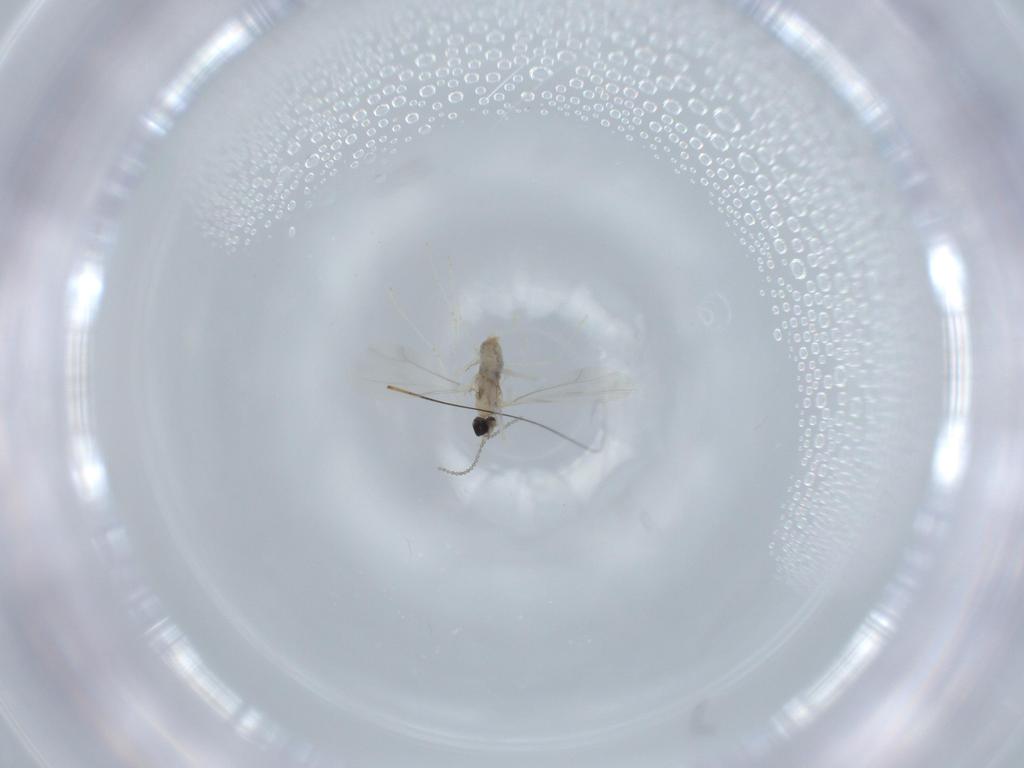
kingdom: Animalia
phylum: Arthropoda
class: Insecta
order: Diptera
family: Cecidomyiidae
